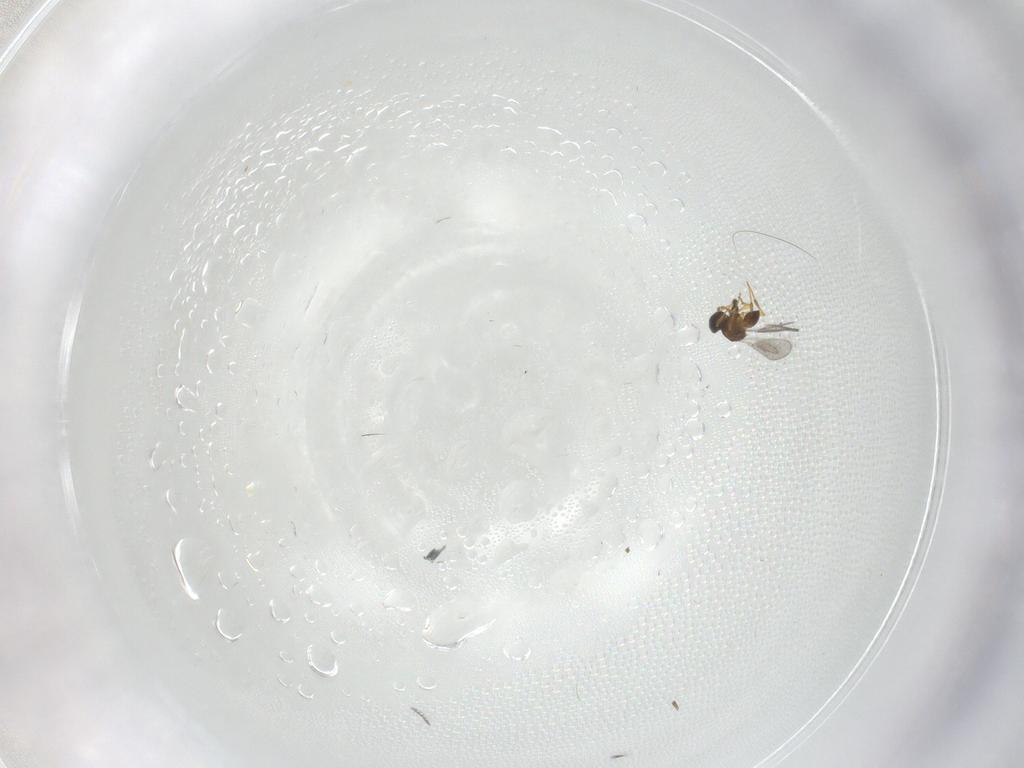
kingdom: Animalia
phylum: Arthropoda
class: Insecta
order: Hymenoptera
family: Platygastridae
